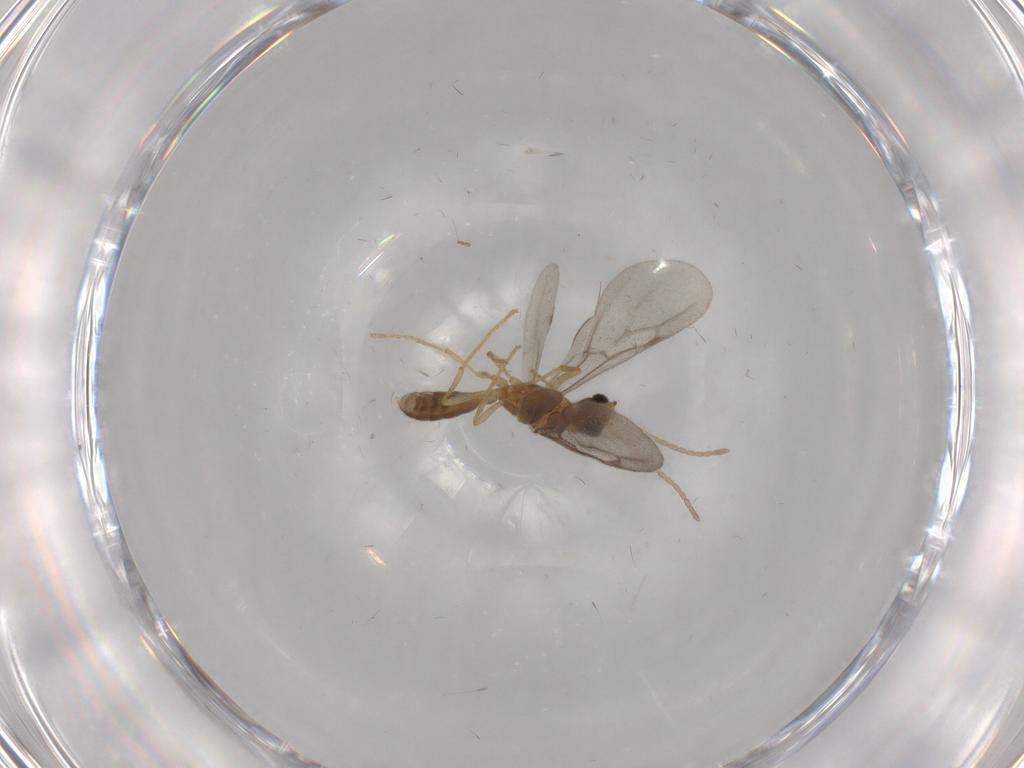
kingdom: Animalia
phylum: Arthropoda
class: Insecta
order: Hymenoptera
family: Formicidae
